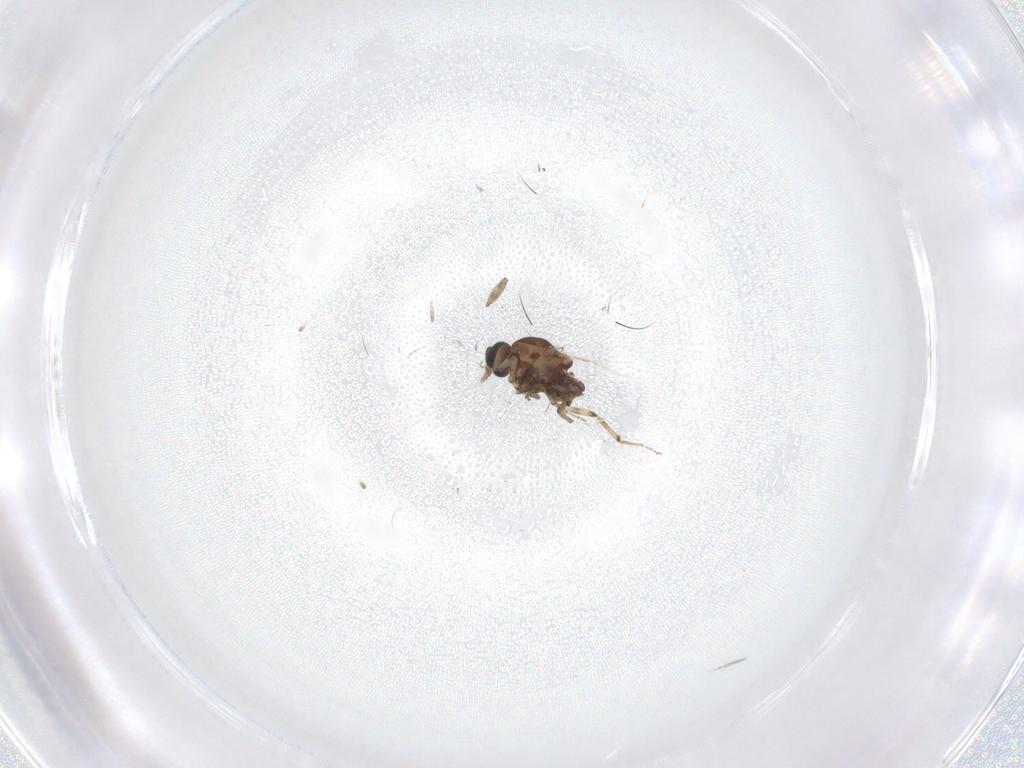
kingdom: Animalia
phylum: Arthropoda
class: Insecta
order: Diptera
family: Ceratopogonidae
